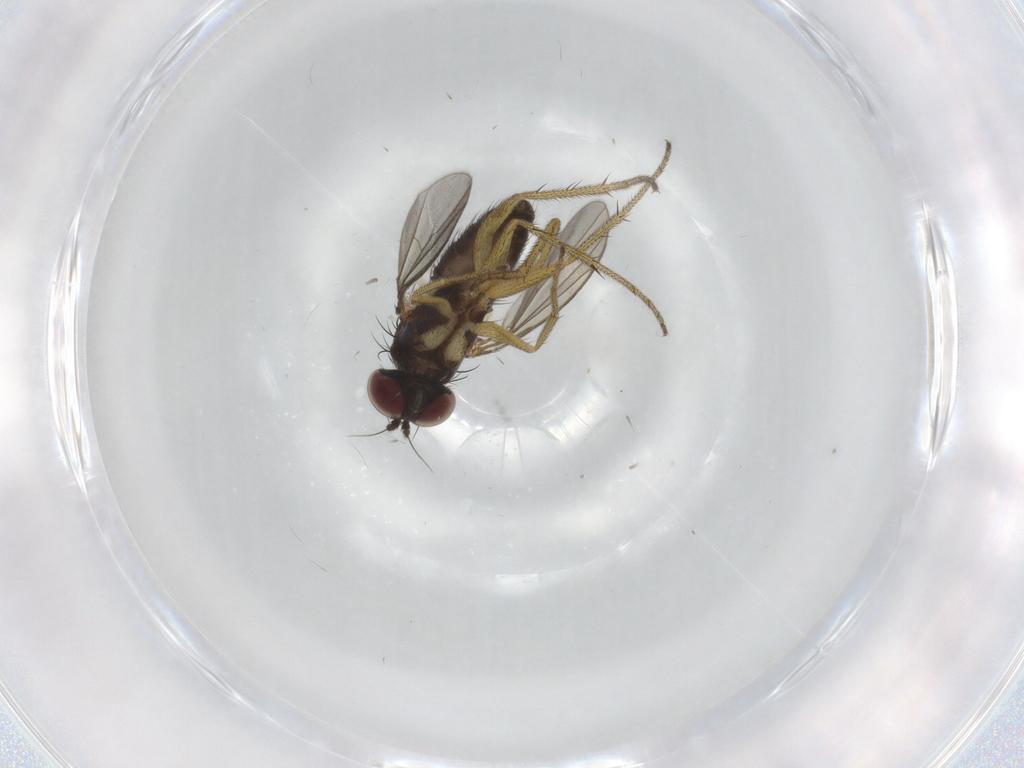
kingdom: Animalia
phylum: Arthropoda
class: Insecta
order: Diptera
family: Dolichopodidae
